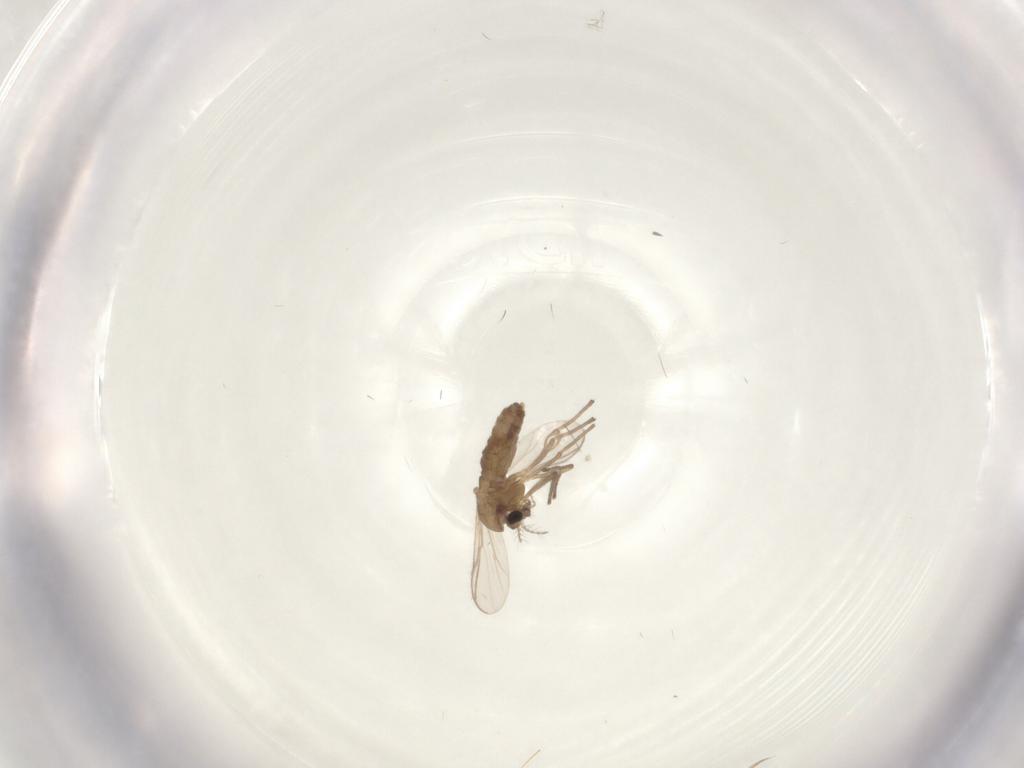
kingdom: Animalia
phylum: Arthropoda
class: Insecta
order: Diptera
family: Chironomidae
